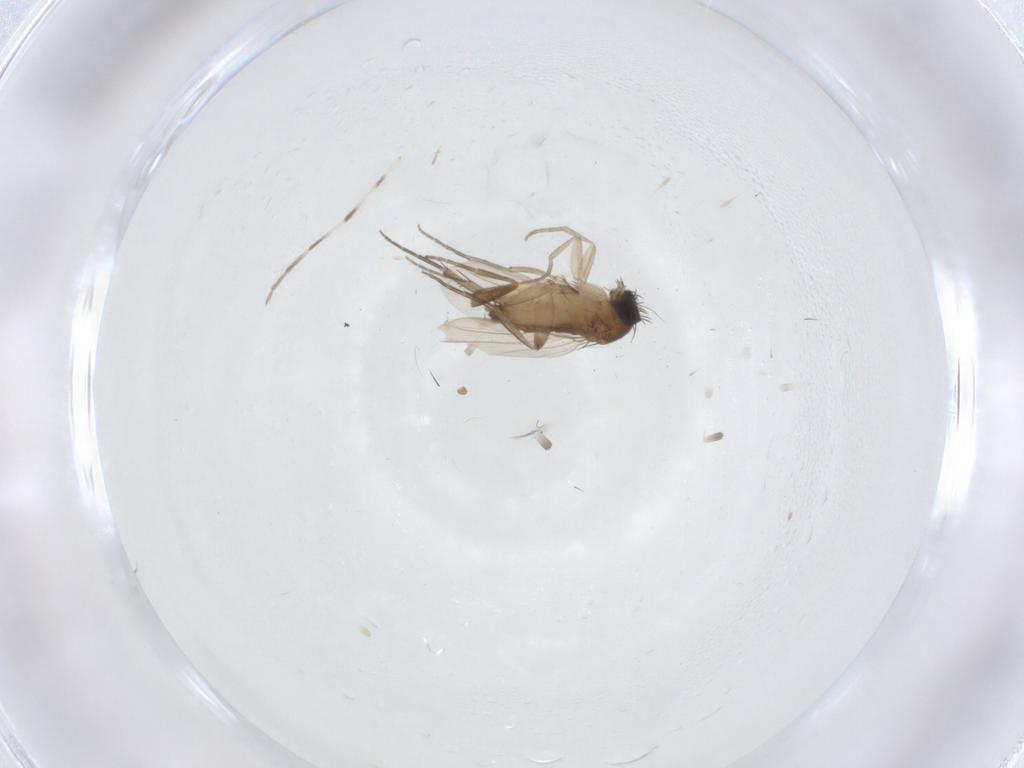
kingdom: Animalia
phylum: Arthropoda
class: Insecta
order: Diptera
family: Phoridae
